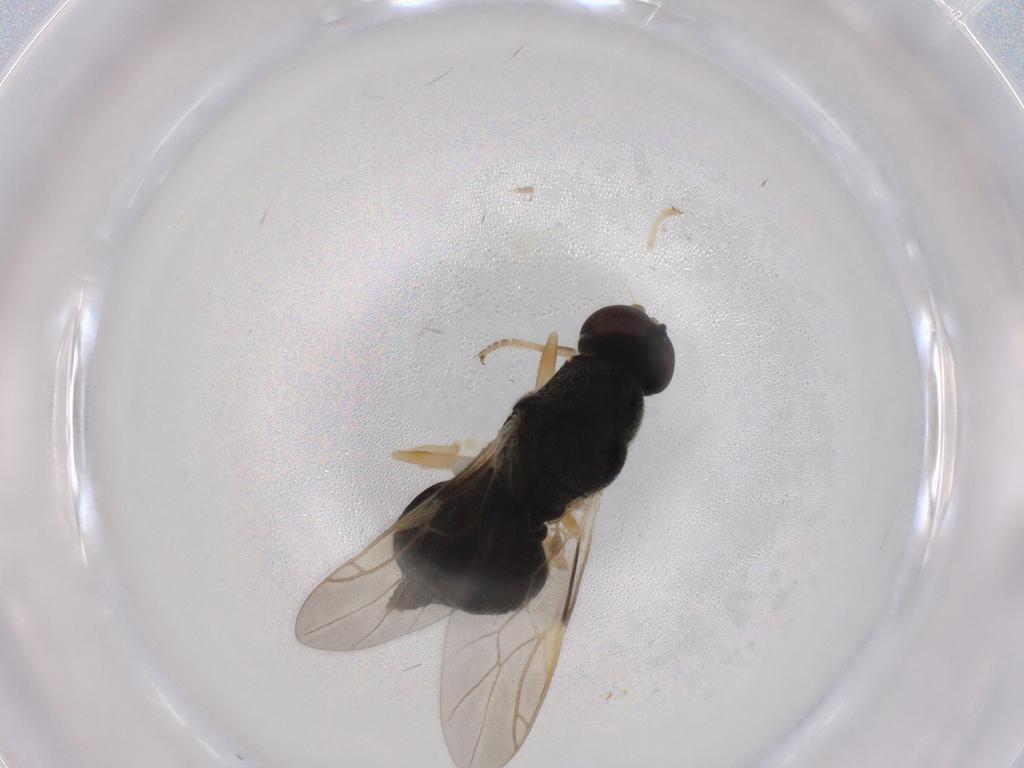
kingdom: Animalia
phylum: Arthropoda
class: Insecta
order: Diptera
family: Stratiomyidae
